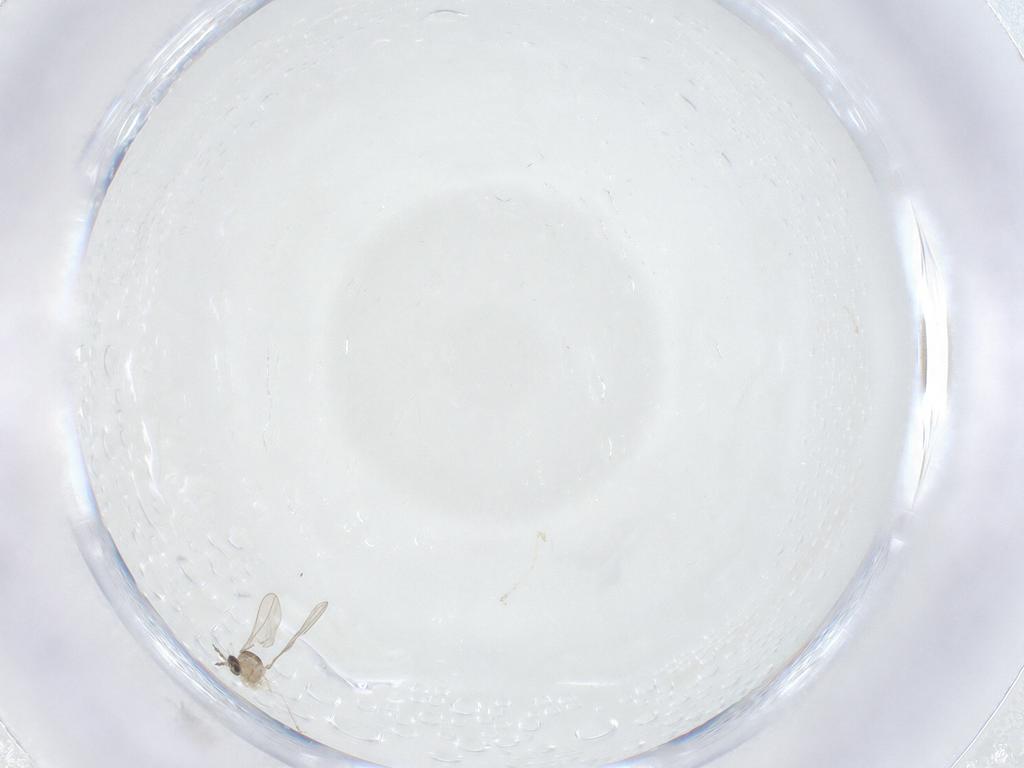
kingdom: Animalia
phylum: Arthropoda
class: Insecta
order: Diptera
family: Limoniidae
